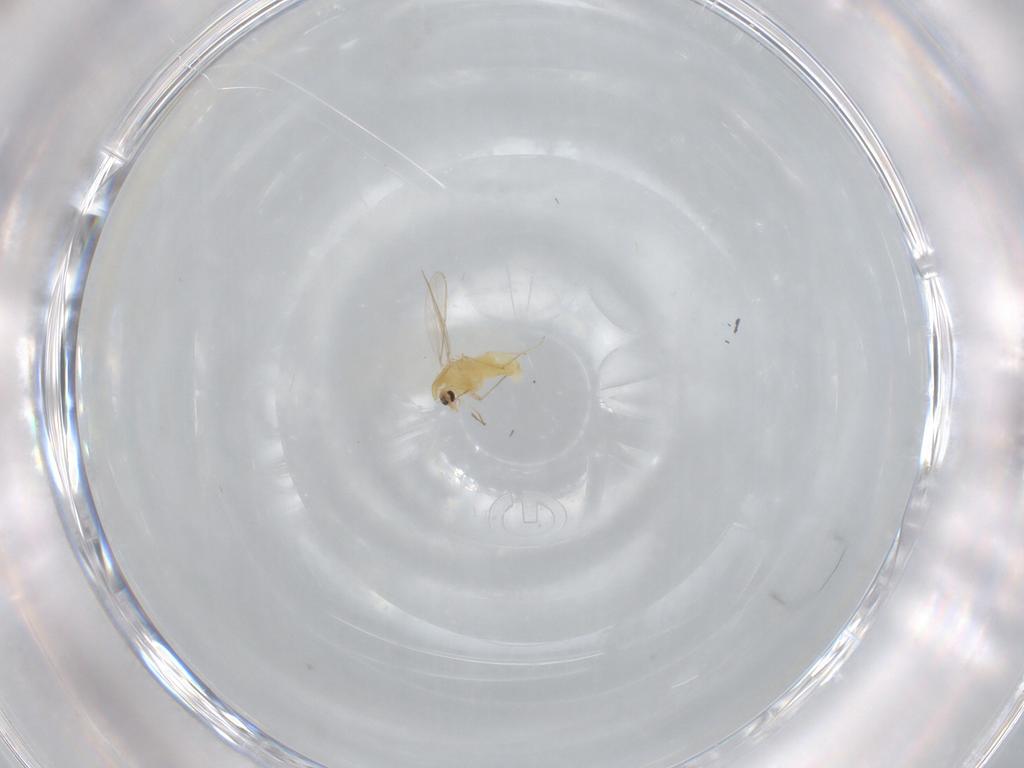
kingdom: Animalia
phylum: Arthropoda
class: Insecta
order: Diptera
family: Chironomidae
